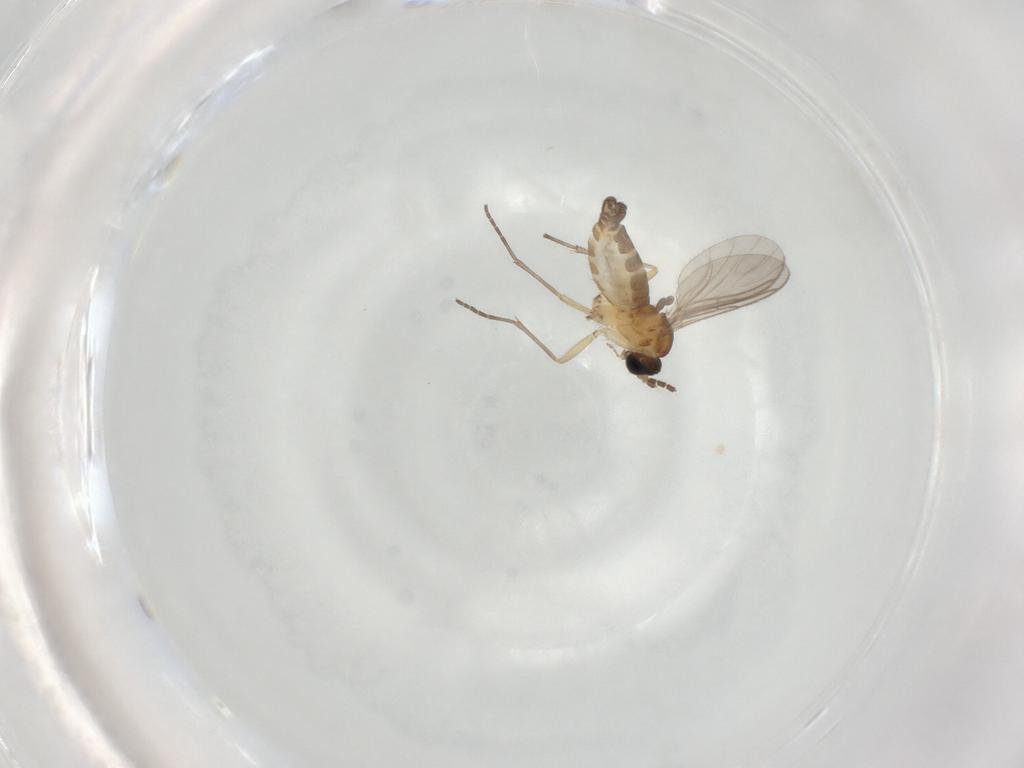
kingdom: Animalia
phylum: Arthropoda
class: Insecta
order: Diptera
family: Sciaridae
